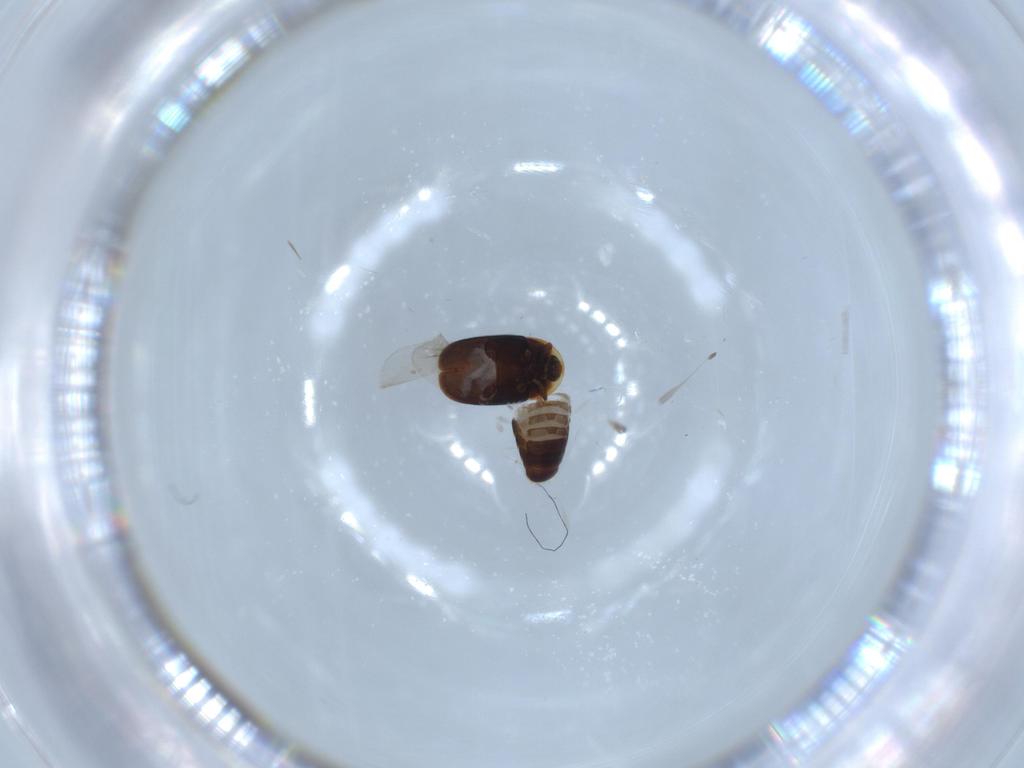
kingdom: Animalia
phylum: Arthropoda
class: Insecta
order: Coleoptera
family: Corylophidae
